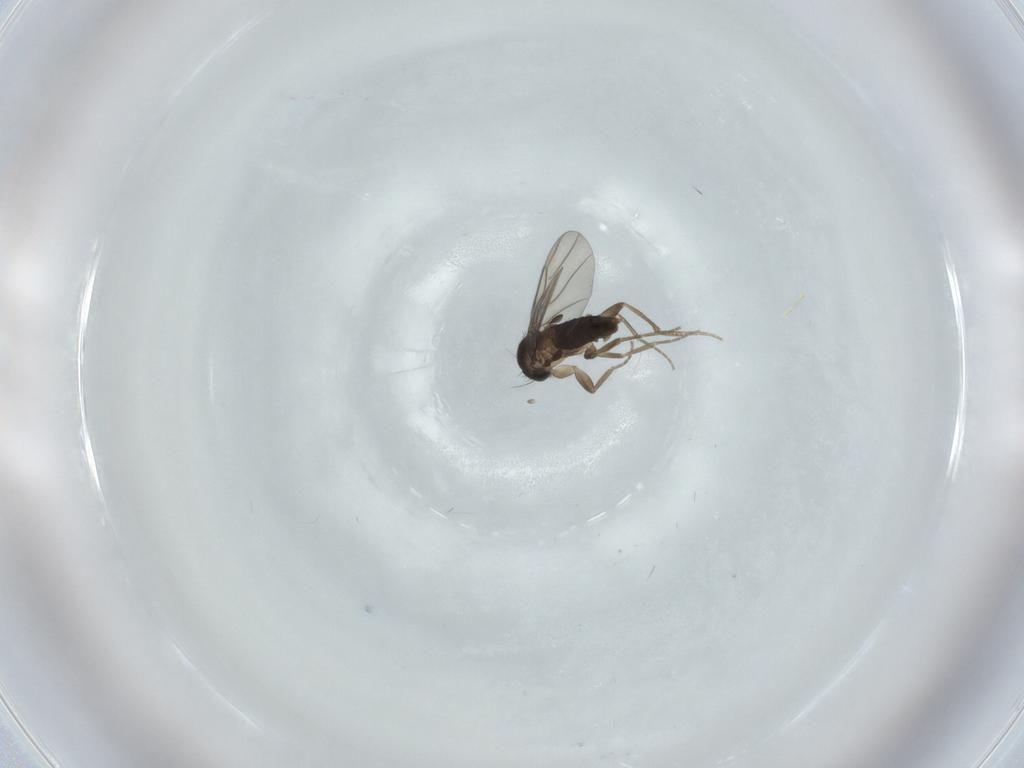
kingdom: Animalia
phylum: Arthropoda
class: Insecta
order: Diptera
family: Phoridae
